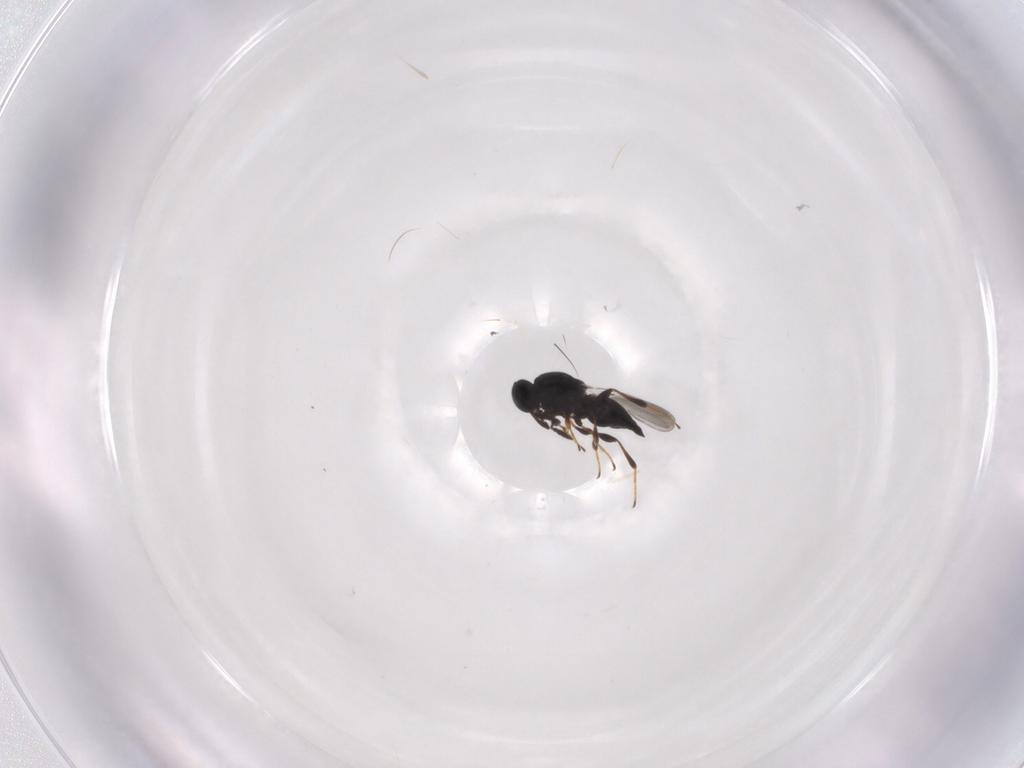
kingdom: Animalia
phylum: Arthropoda
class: Insecta
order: Hymenoptera
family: Platygastridae
